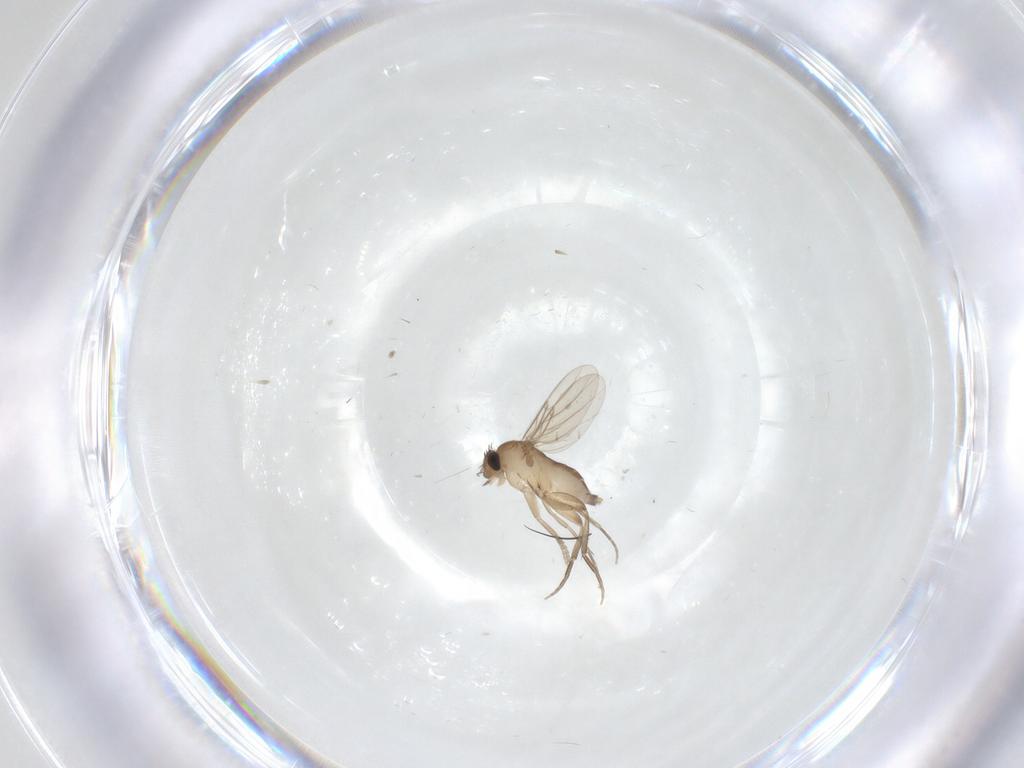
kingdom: Animalia
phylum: Arthropoda
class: Insecta
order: Diptera
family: Phoridae
